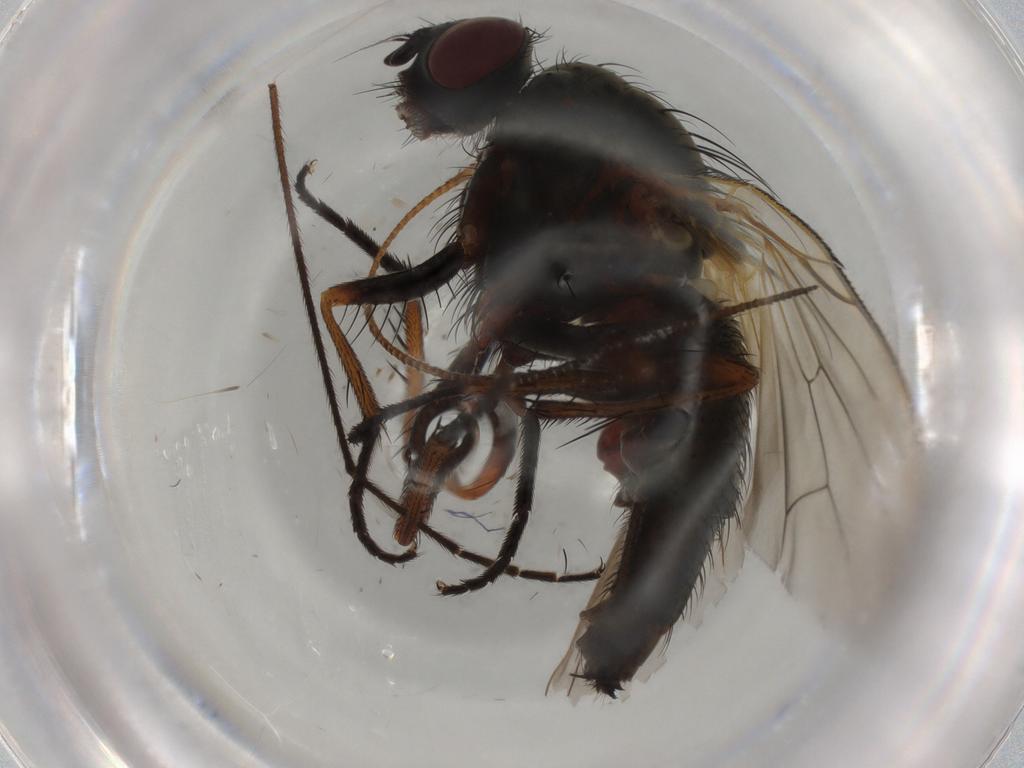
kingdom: Animalia
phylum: Arthropoda
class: Insecta
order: Diptera
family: Anthomyiidae
